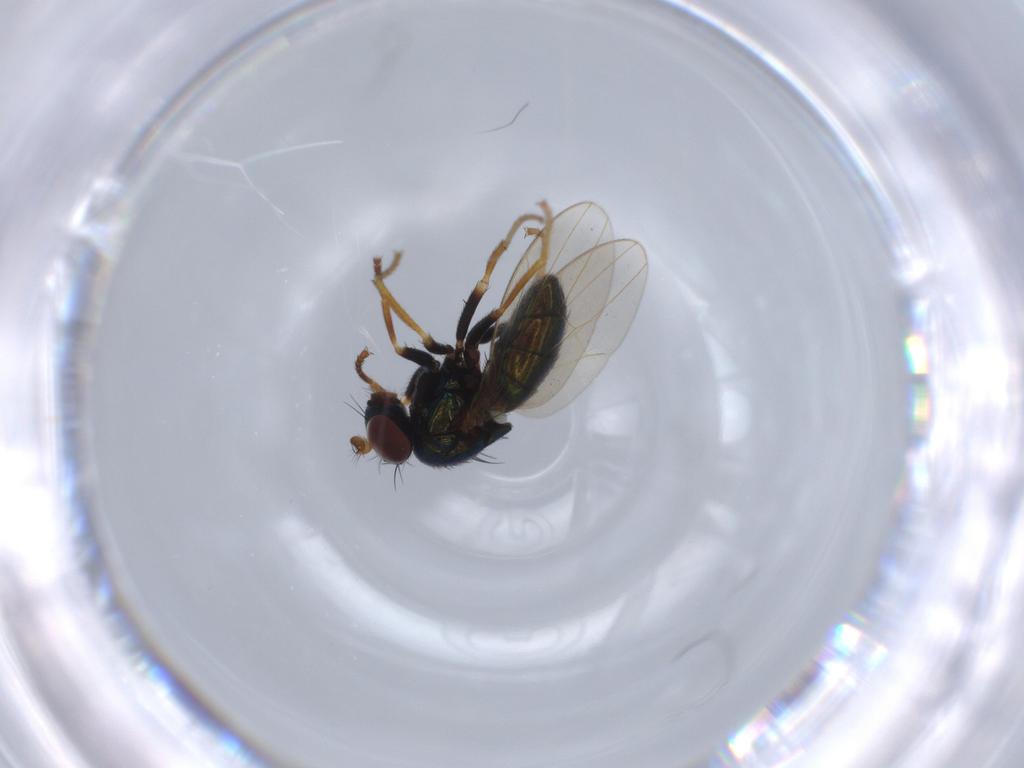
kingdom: Animalia
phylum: Arthropoda
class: Insecta
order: Diptera
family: Ephydridae
